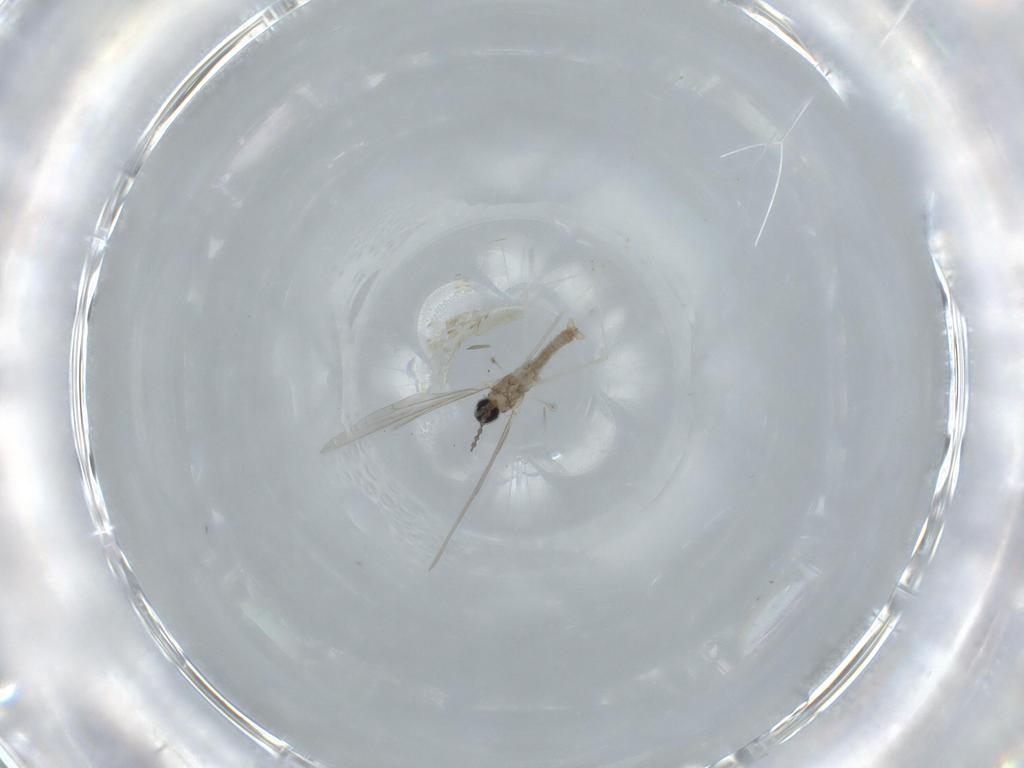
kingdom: Animalia
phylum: Arthropoda
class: Insecta
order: Diptera
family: Cecidomyiidae
